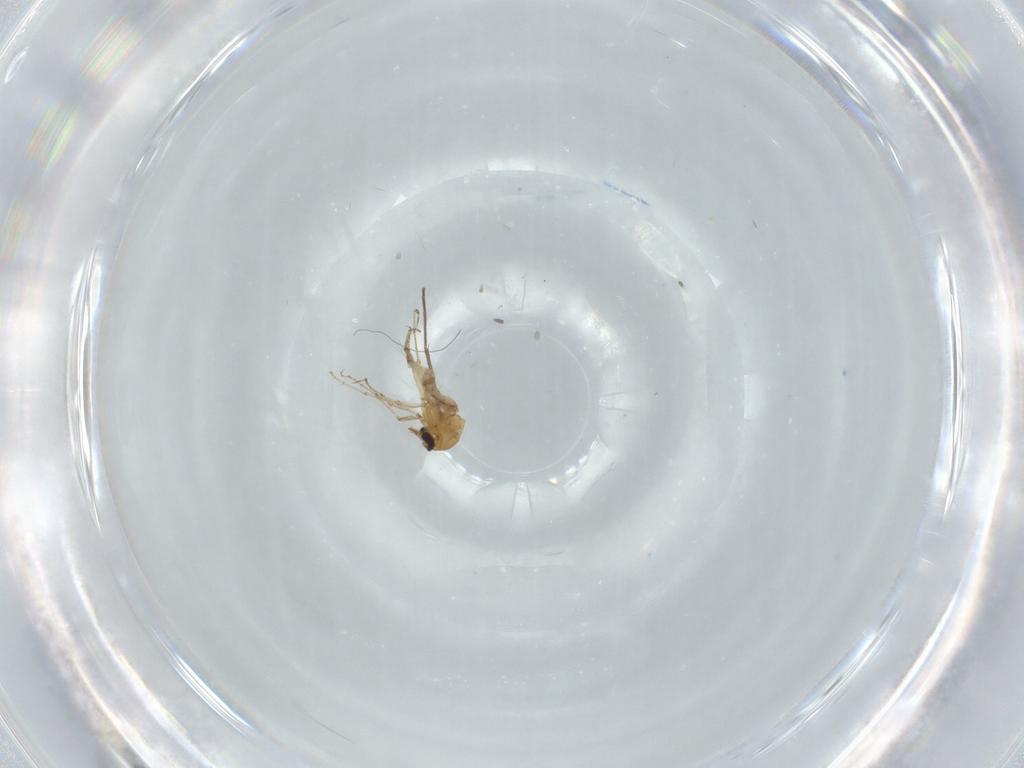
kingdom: Animalia
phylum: Arthropoda
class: Insecta
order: Diptera
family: Ceratopogonidae
